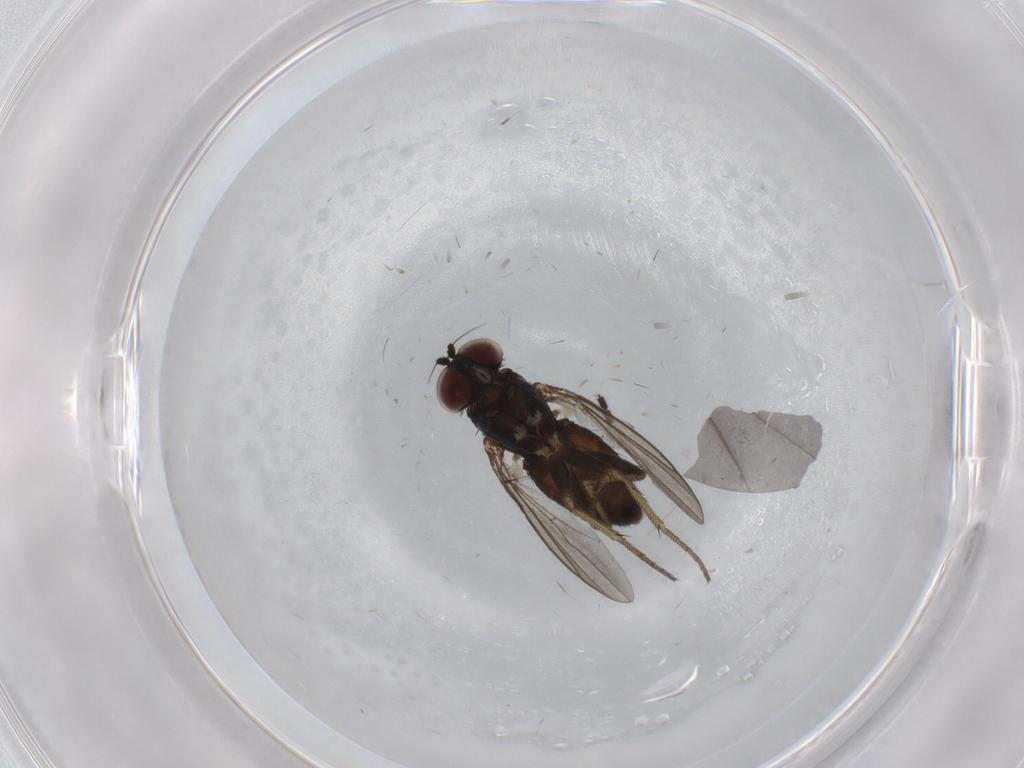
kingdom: Animalia
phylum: Arthropoda
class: Insecta
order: Diptera
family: Sciaridae
